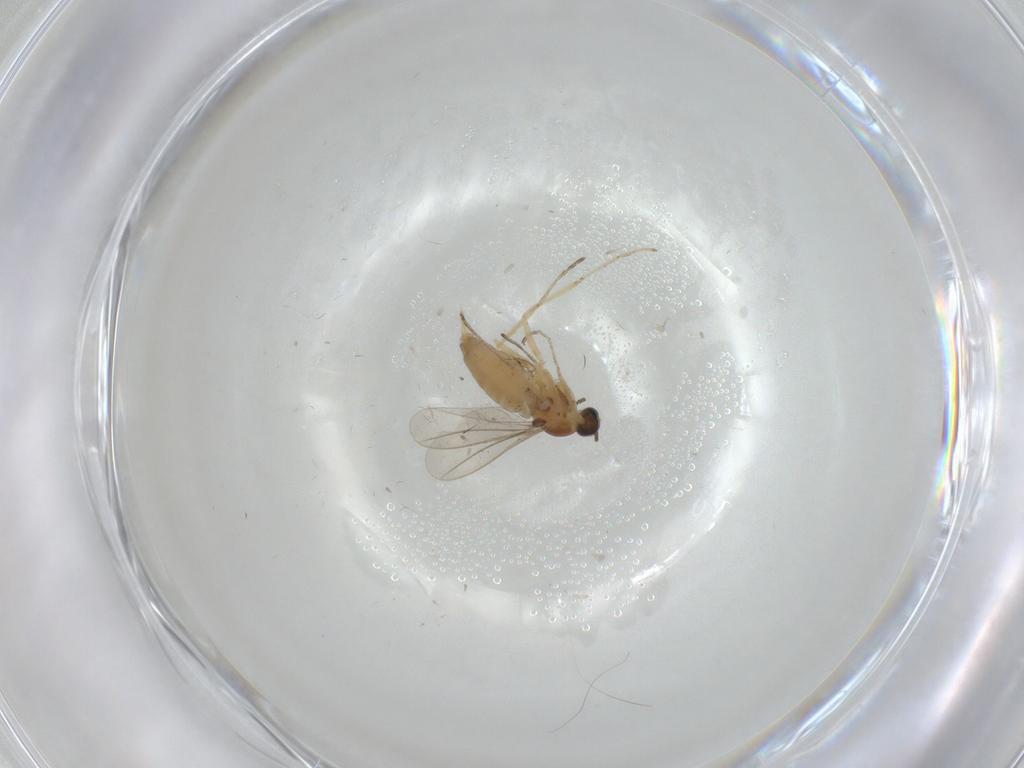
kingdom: Animalia
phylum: Arthropoda
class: Insecta
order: Diptera
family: Cecidomyiidae
